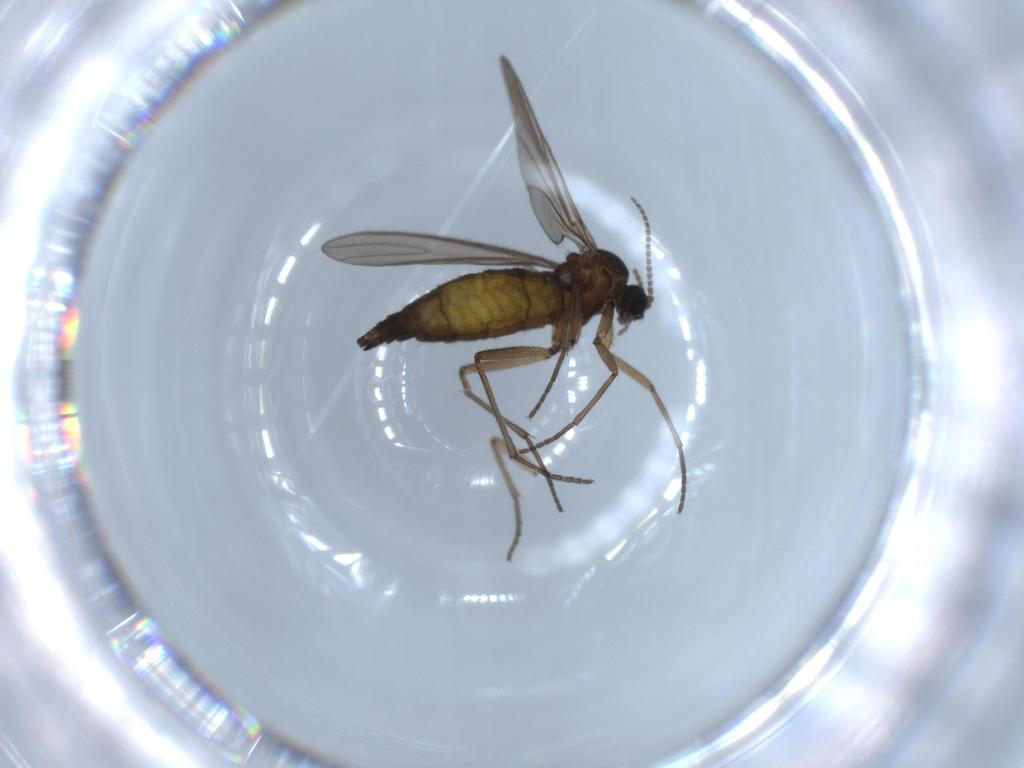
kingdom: Animalia
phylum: Arthropoda
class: Insecta
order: Diptera
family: Sciaridae
